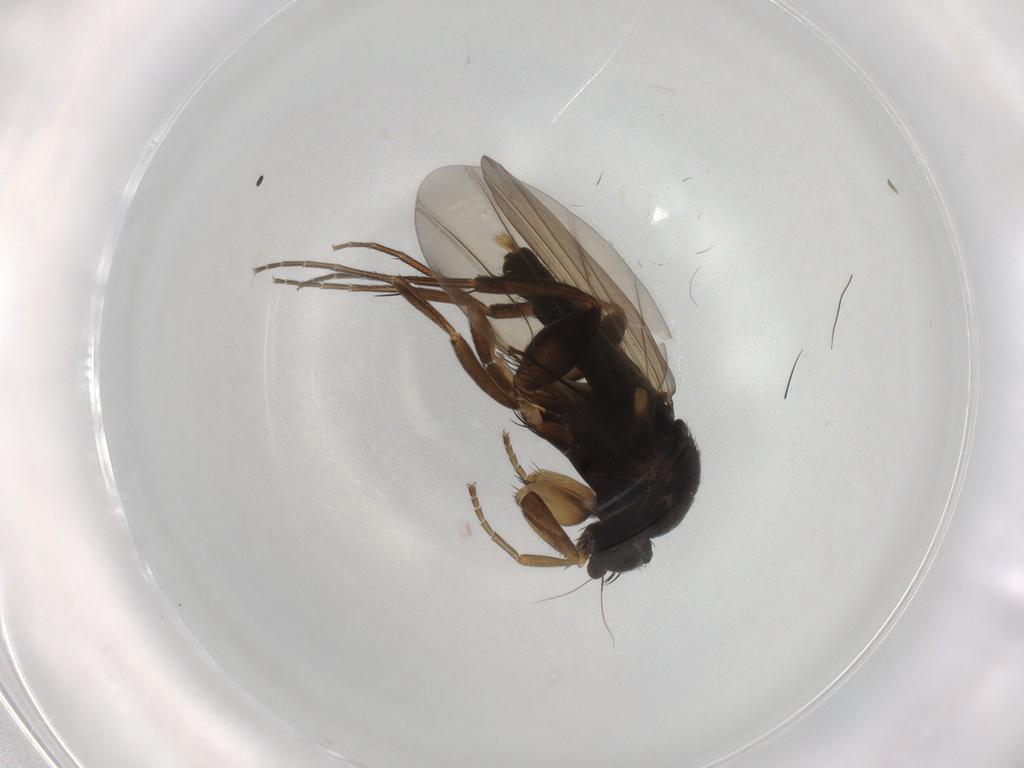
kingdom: Animalia
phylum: Arthropoda
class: Insecta
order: Diptera
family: Phoridae
